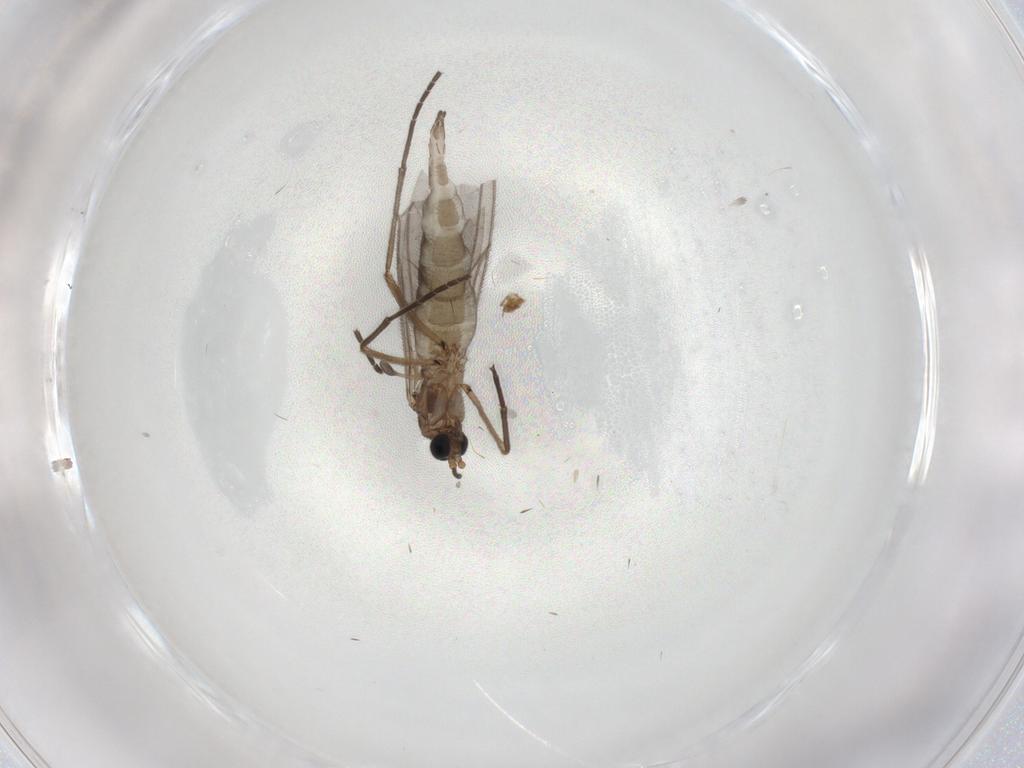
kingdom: Animalia
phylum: Arthropoda
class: Insecta
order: Diptera
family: Chironomidae
